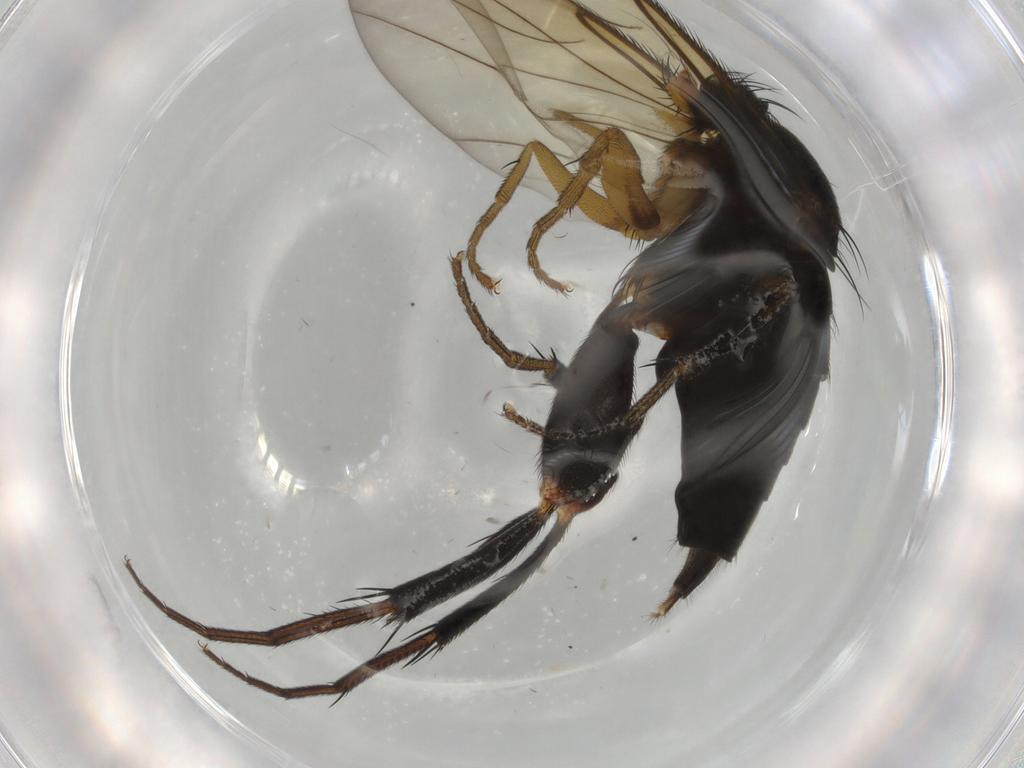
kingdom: Animalia
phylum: Arthropoda
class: Insecta
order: Diptera
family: Phoridae
